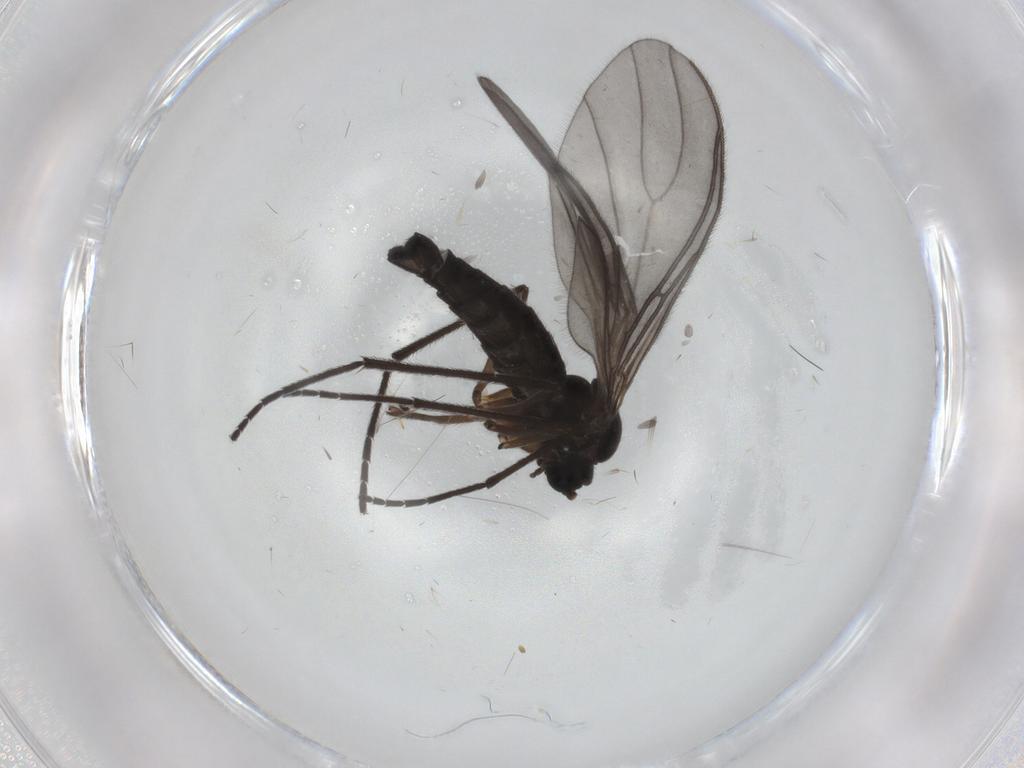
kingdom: Animalia
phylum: Arthropoda
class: Insecta
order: Diptera
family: Sciaridae
